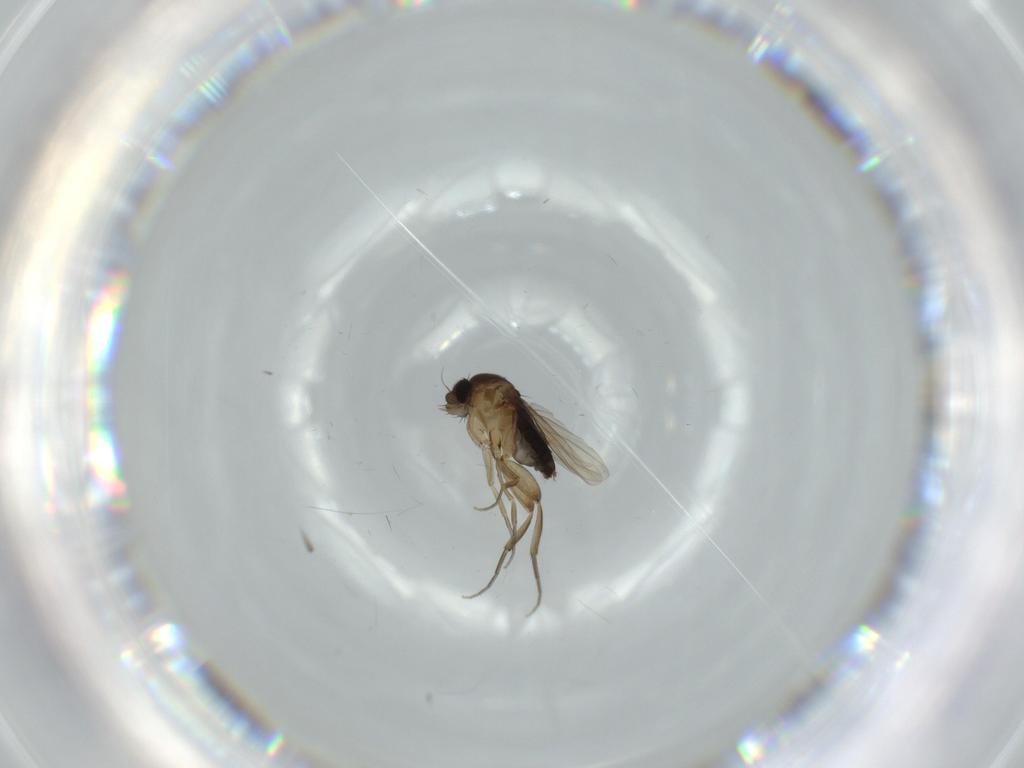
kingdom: Animalia
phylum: Arthropoda
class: Insecta
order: Diptera
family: Phoridae
